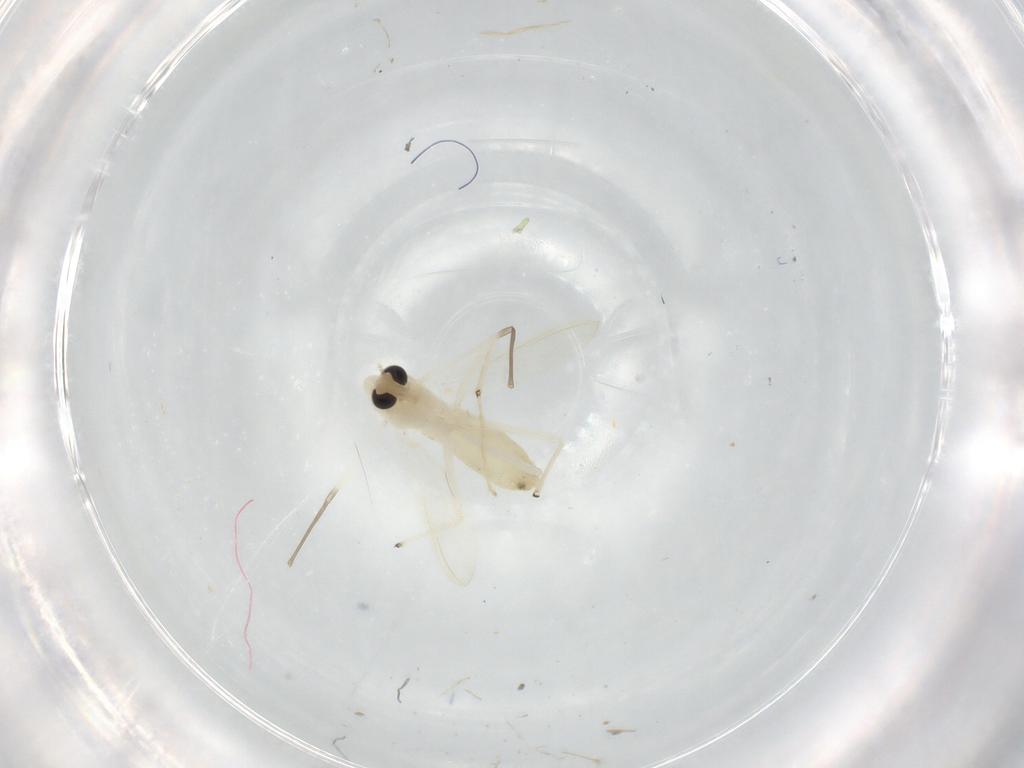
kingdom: Animalia
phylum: Arthropoda
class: Insecta
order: Diptera
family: Chironomidae
